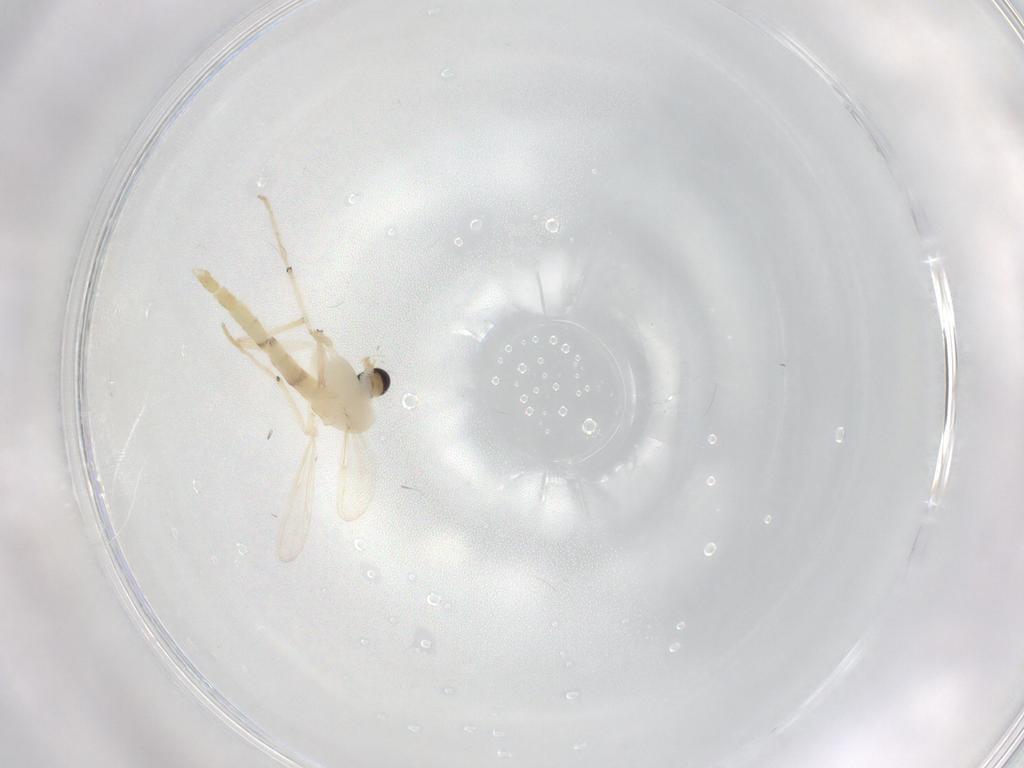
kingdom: Animalia
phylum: Arthropoda
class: Insecta
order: Diptera
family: Chironomidae
